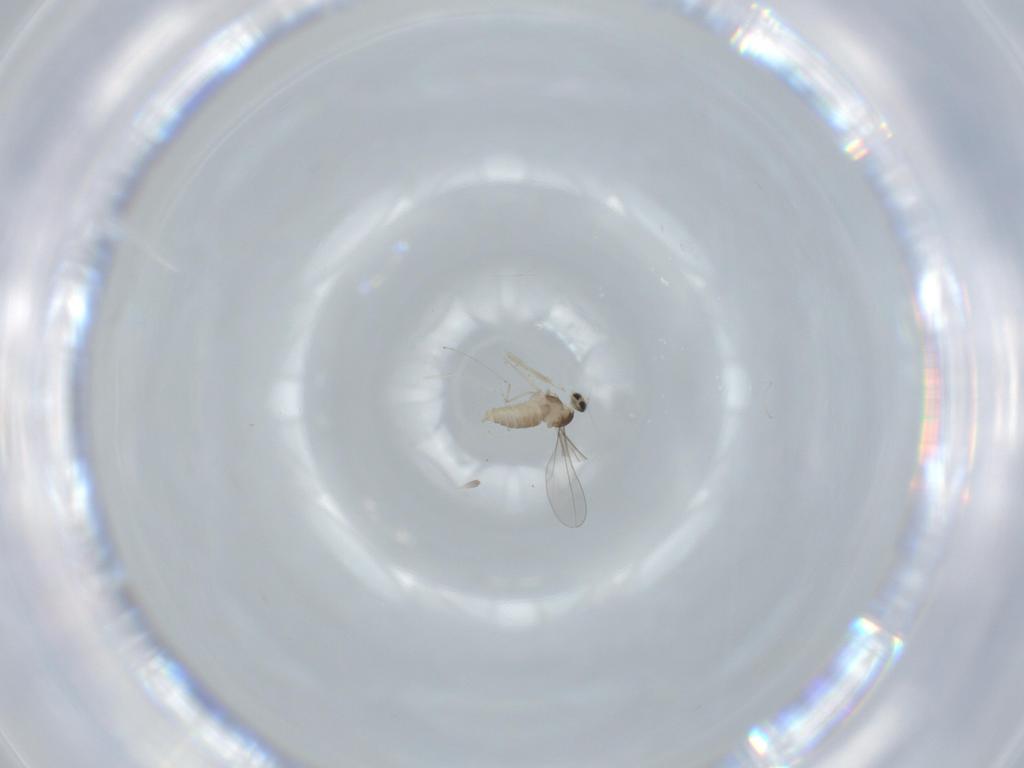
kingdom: Animalia
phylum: Arthropoda
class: Insecta
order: Diptera
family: Cecidomyiidae
